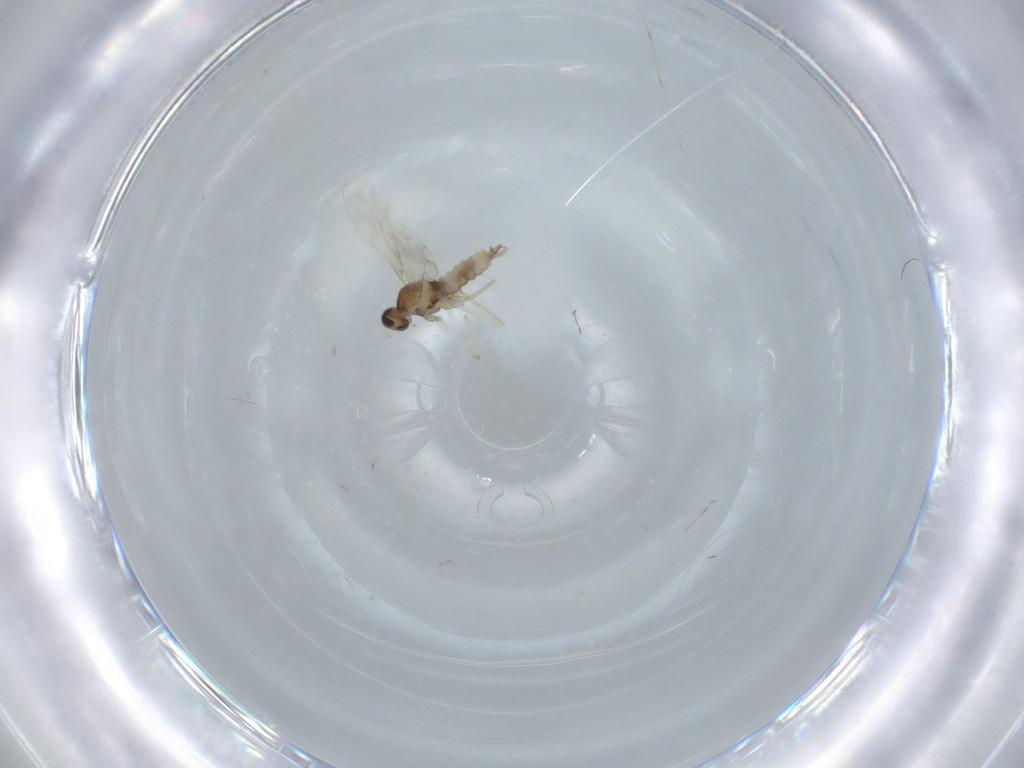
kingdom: Animalia
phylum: Arthropoda
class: Insecta
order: Diptera
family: Cecidomyiidae
